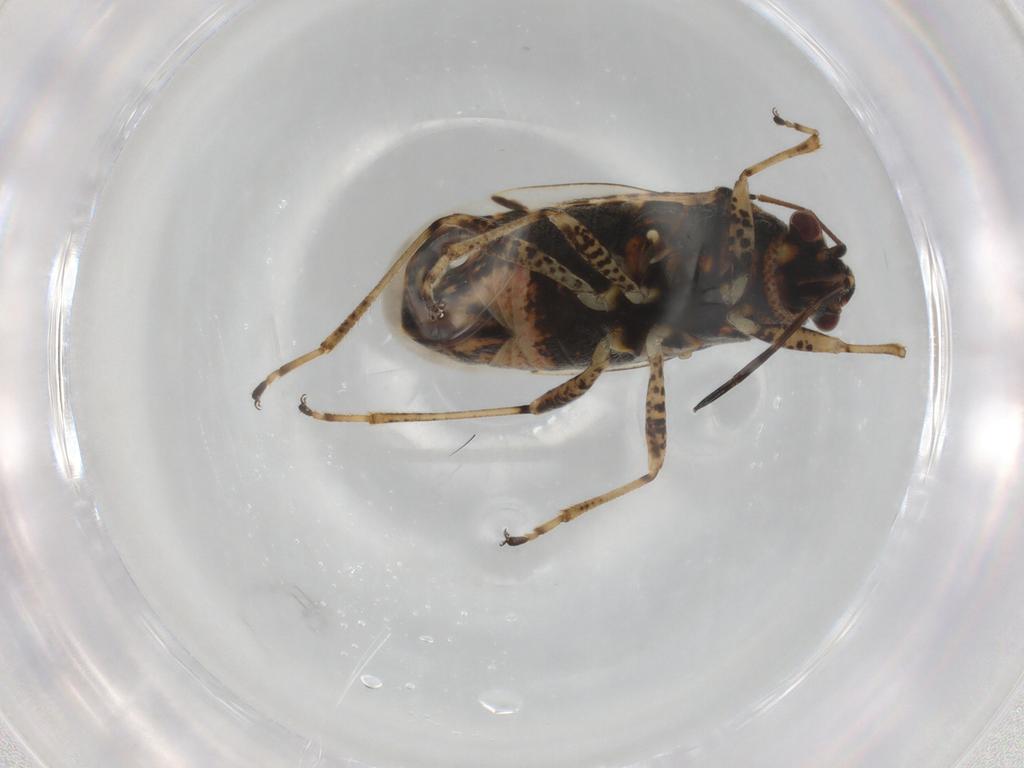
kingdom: Animalia
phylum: Arthropoda
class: Insecta
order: Hemiptera
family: Lygaeidae
